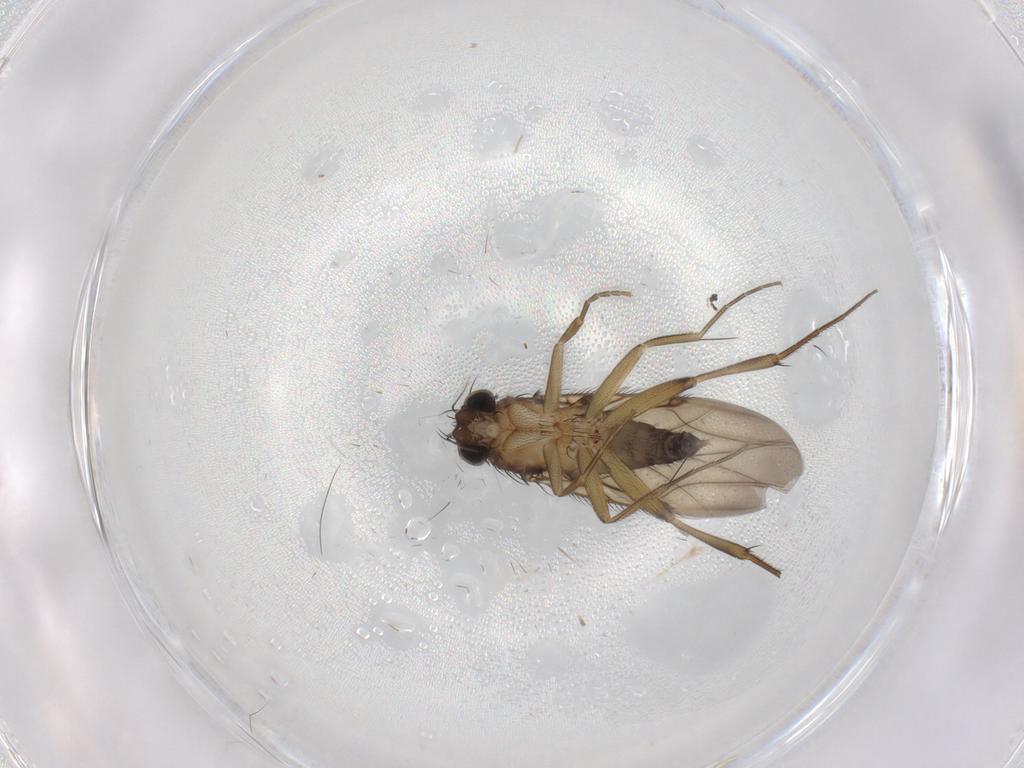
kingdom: Animalia
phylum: Arthropoda
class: Insecta
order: Diptera
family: Phoridae
